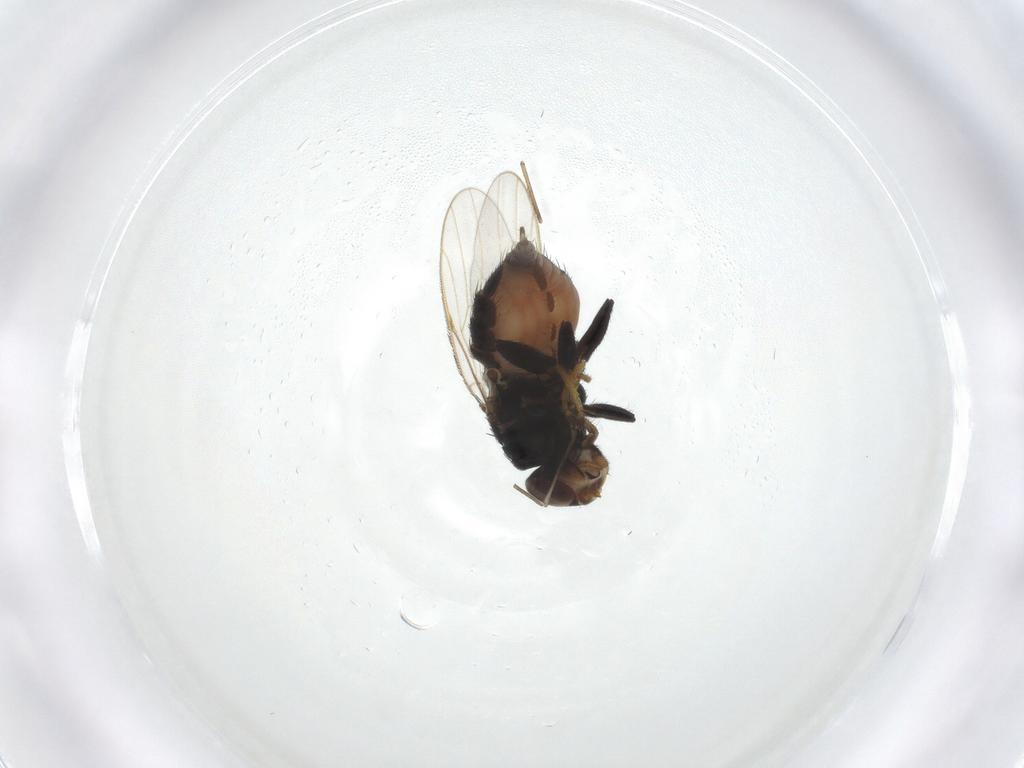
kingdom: Animalia
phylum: Arthropoda
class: Insecta
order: Diptera
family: Chloropidae
